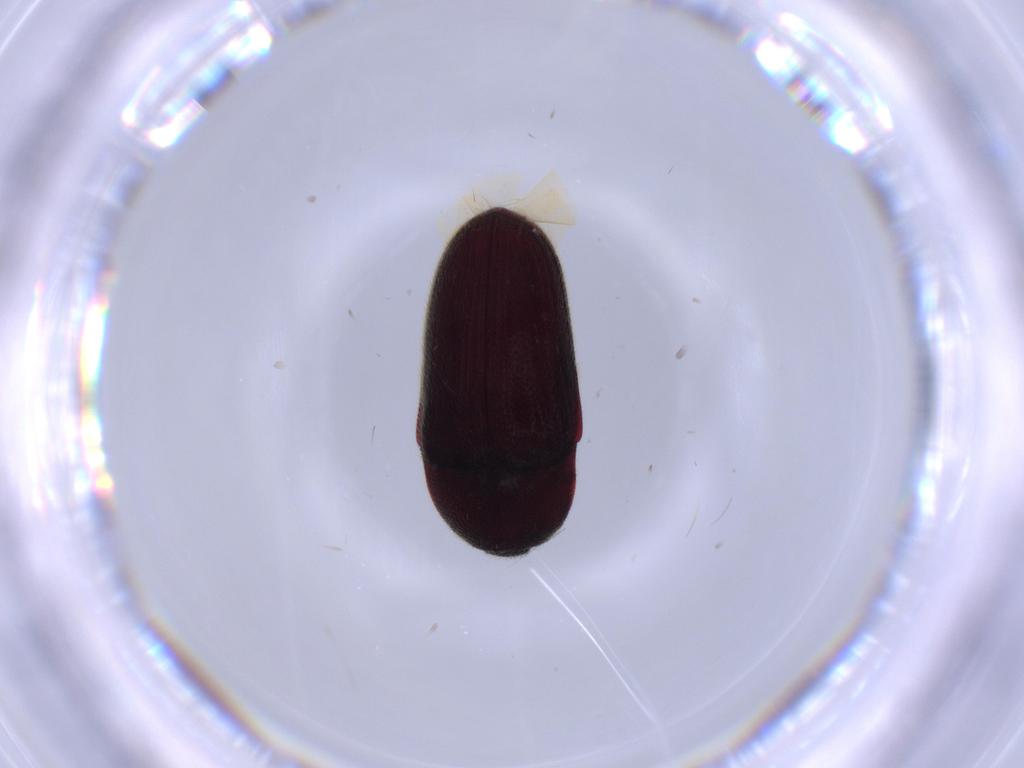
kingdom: Animalia
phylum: Arthropoda
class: Insecta
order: Coleoptera
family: Throscidae
